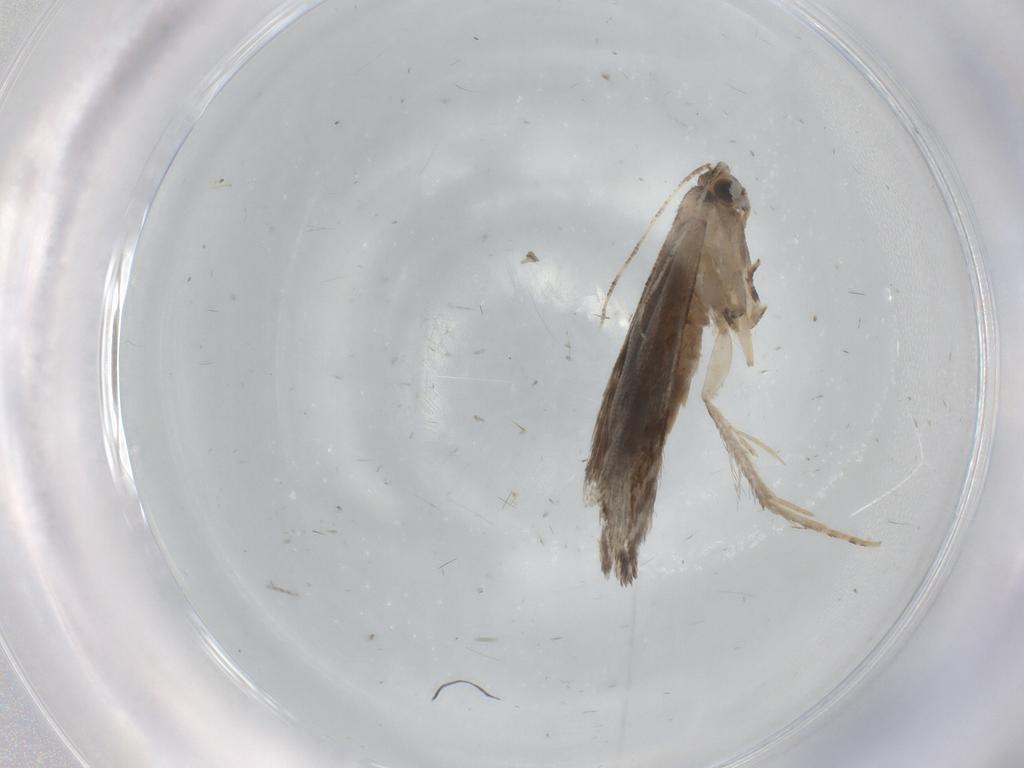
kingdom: Animalia
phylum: Arthropoda
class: Insecta
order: Lepidoptera
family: Tineidae
